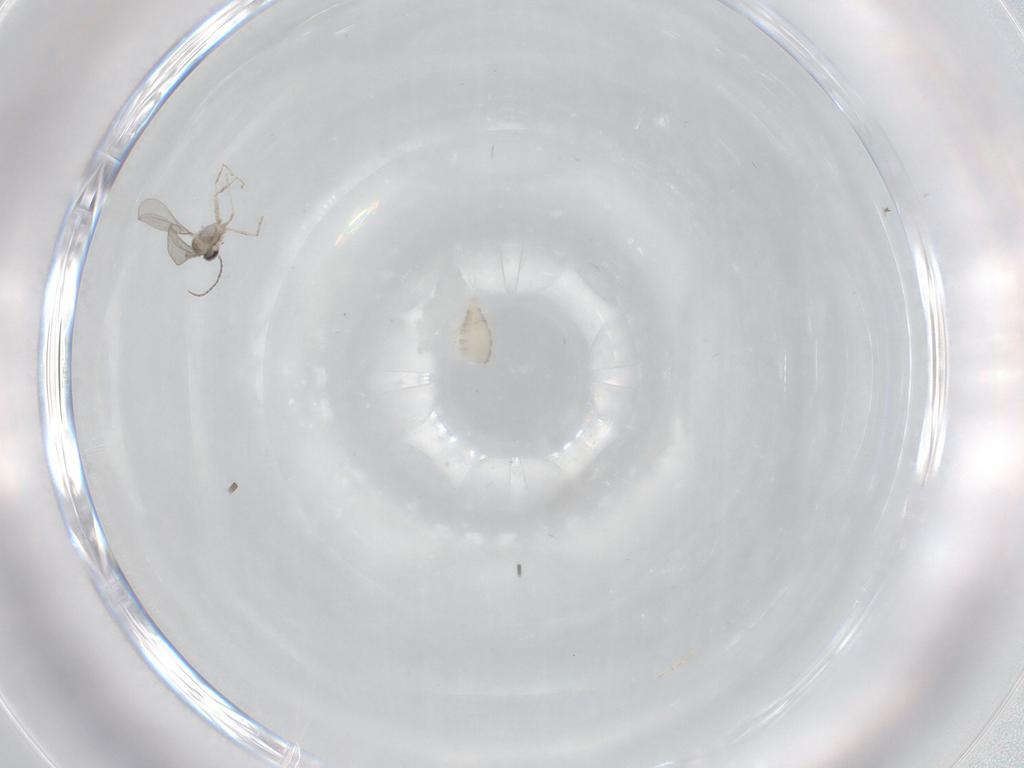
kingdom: Animalia
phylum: Arthropoda
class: Insecta
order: Diptera
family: Cecidomyiidae
